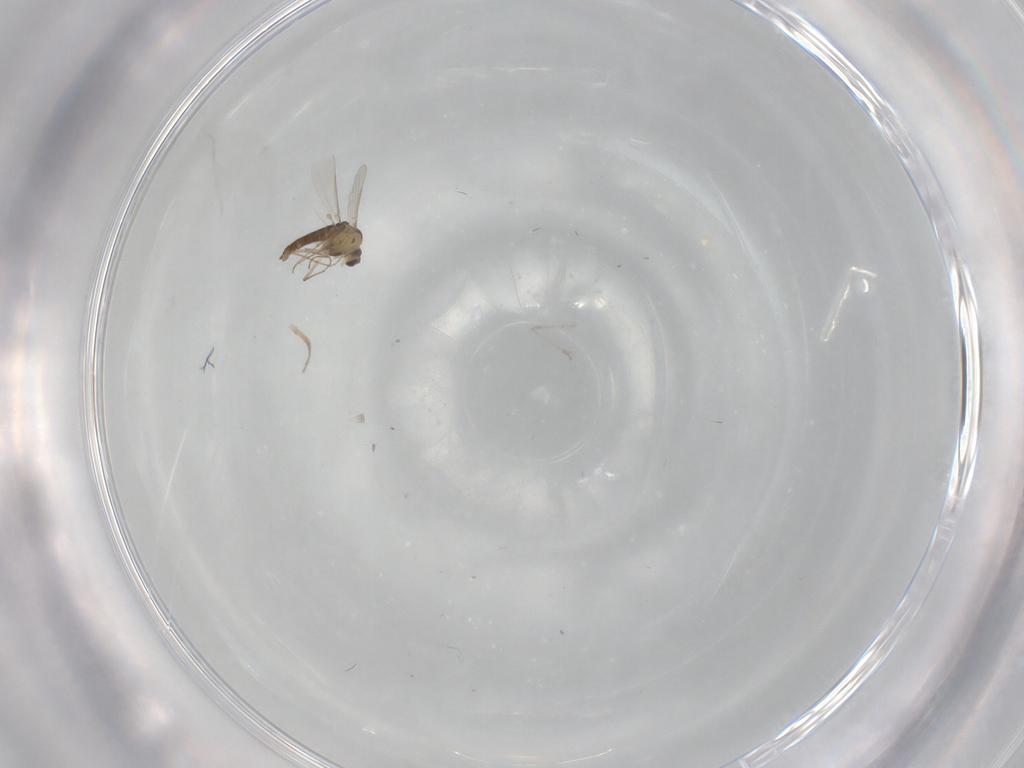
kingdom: Animalia
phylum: Arthropoda
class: Insecta
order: Diptera
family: Chironomidae
